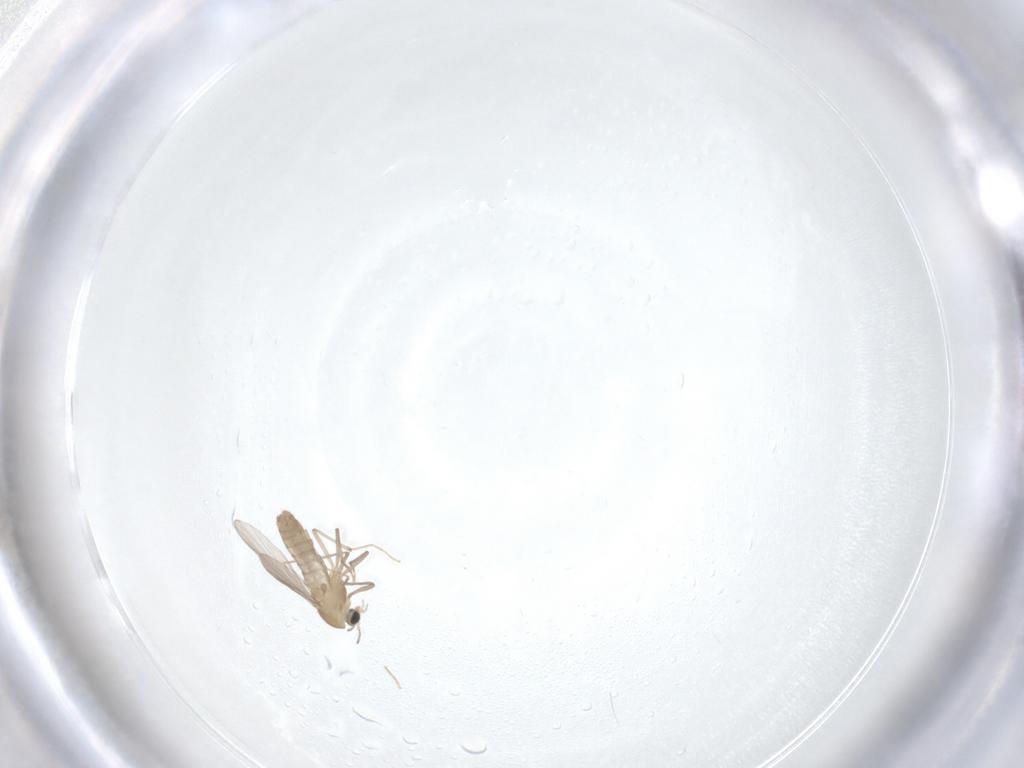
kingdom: Animalia
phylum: Arthropoda
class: Insecta
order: Diptera
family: Chironomidae
